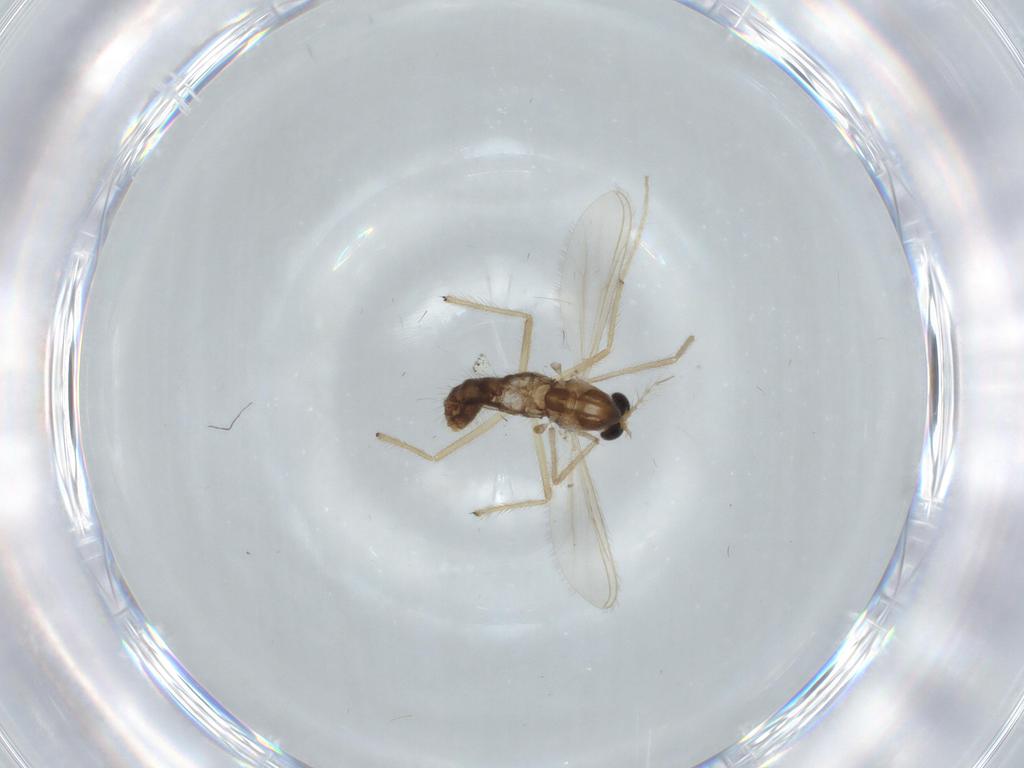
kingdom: Animalia
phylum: Arthropoda
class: Insecta
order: Diptera
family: Chironomidae
